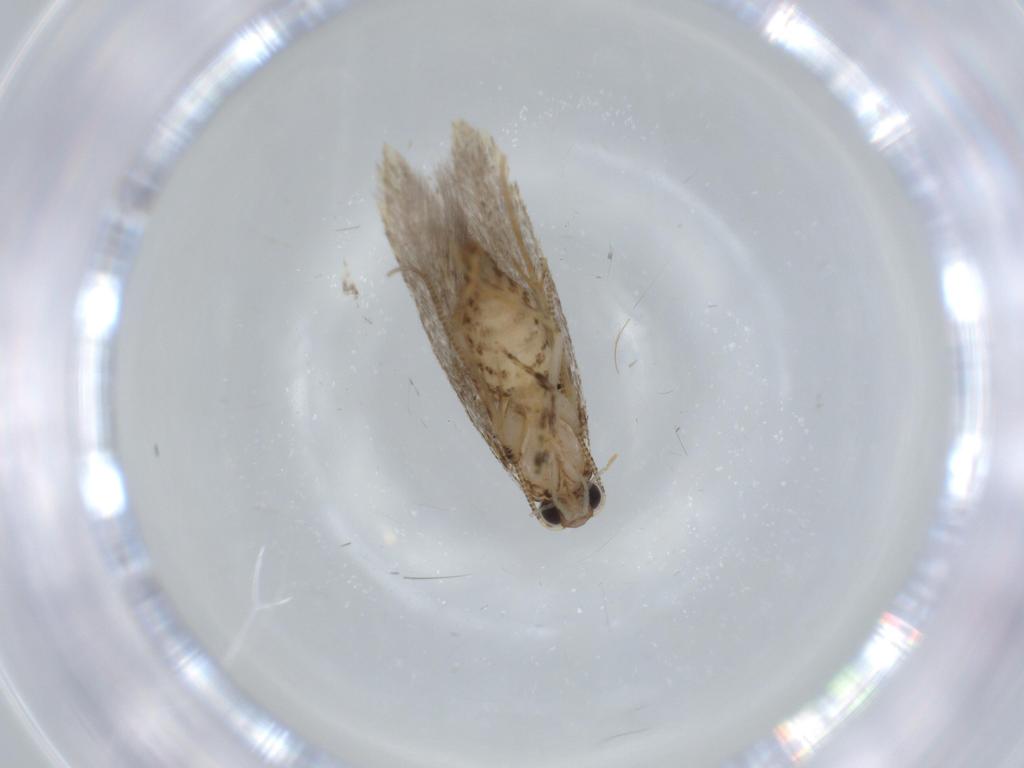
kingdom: Animalia
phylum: Arthropoda
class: Insecta
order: Lepidoptera
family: Tineidae
